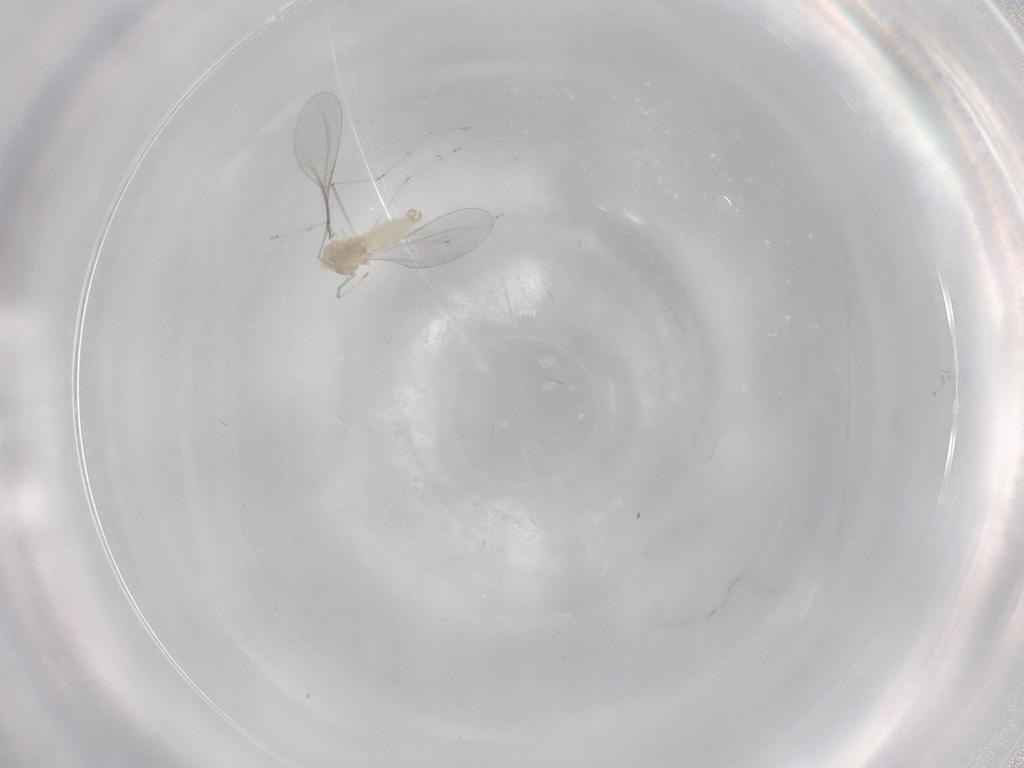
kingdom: Animalia
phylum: Arthropoda
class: Insecta
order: Diptera
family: Cecidomyiidae
